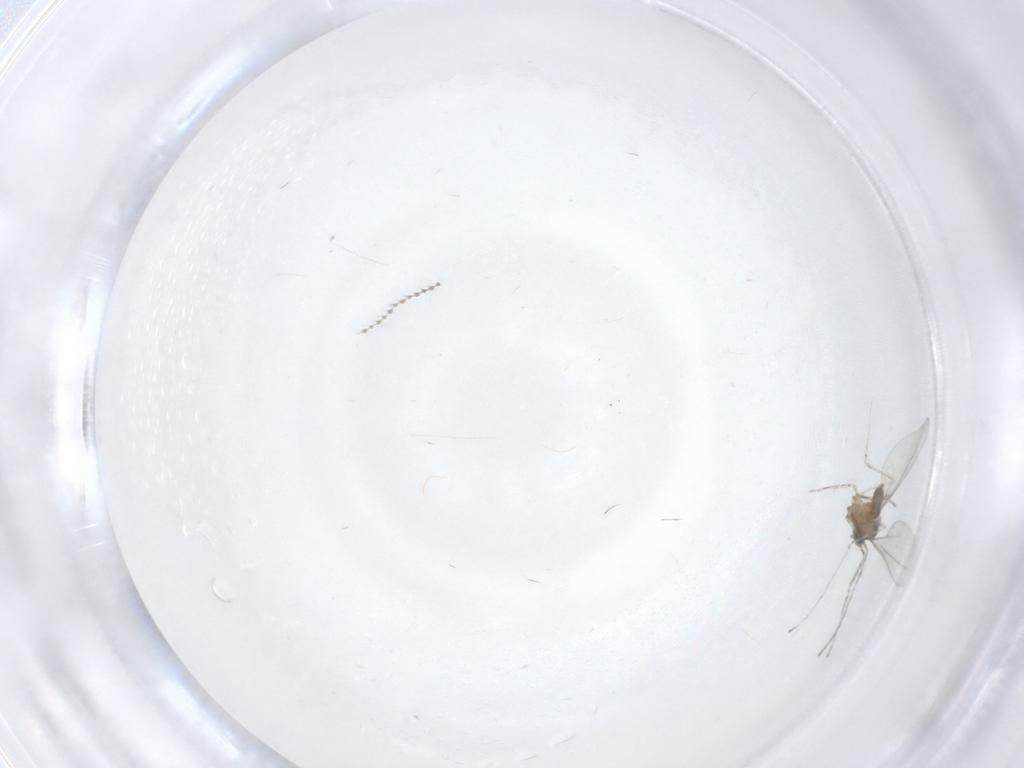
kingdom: Animalia
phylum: Arthropoda
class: Insecta
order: Diptera
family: Cecidomyiidae
